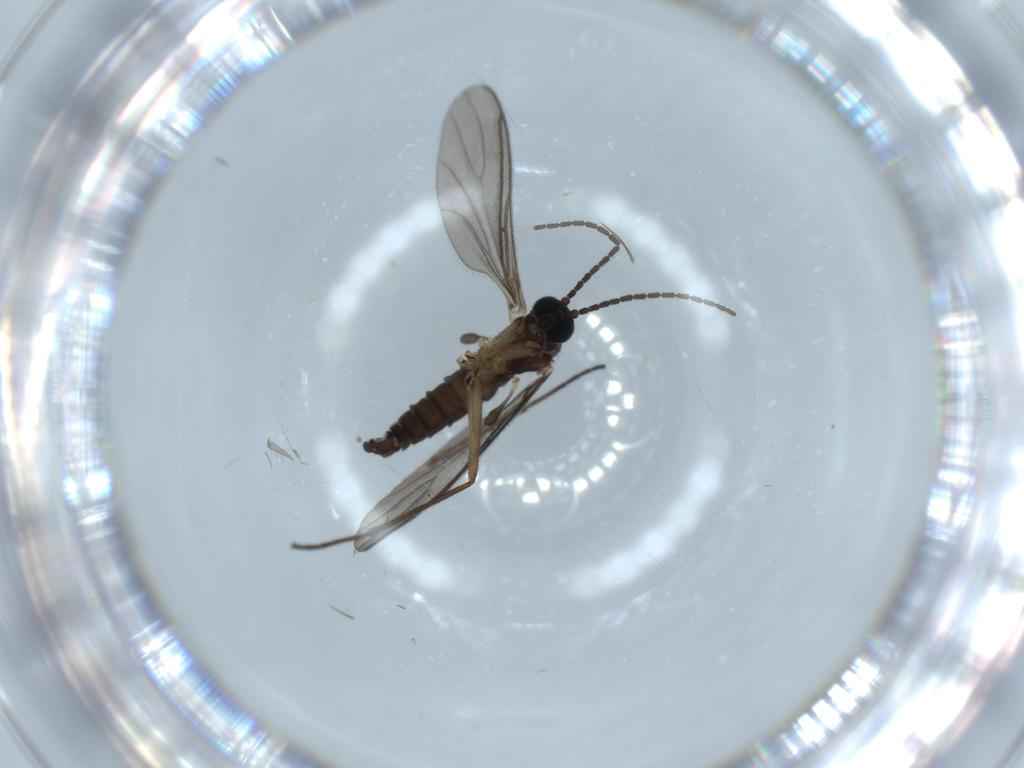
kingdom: Animalia
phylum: Arthropoda
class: Insecta
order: Diptera
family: Sciaridae
